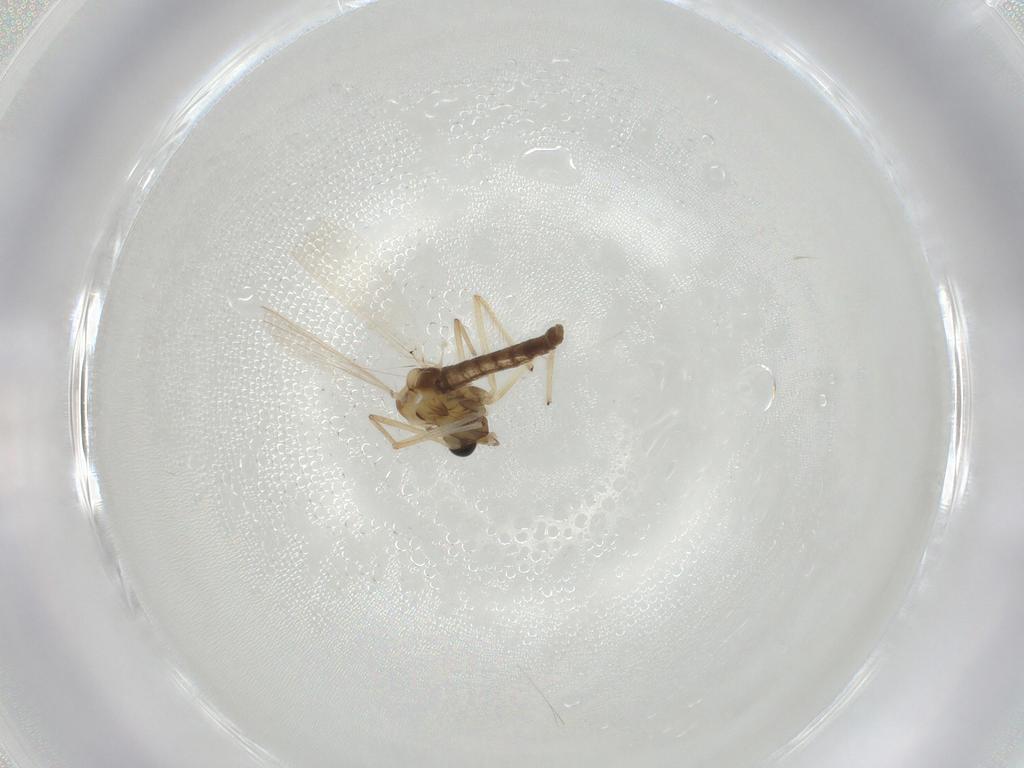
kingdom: Animalia
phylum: Arthropoda
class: Insecta
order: Diptera
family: Chironomidae
